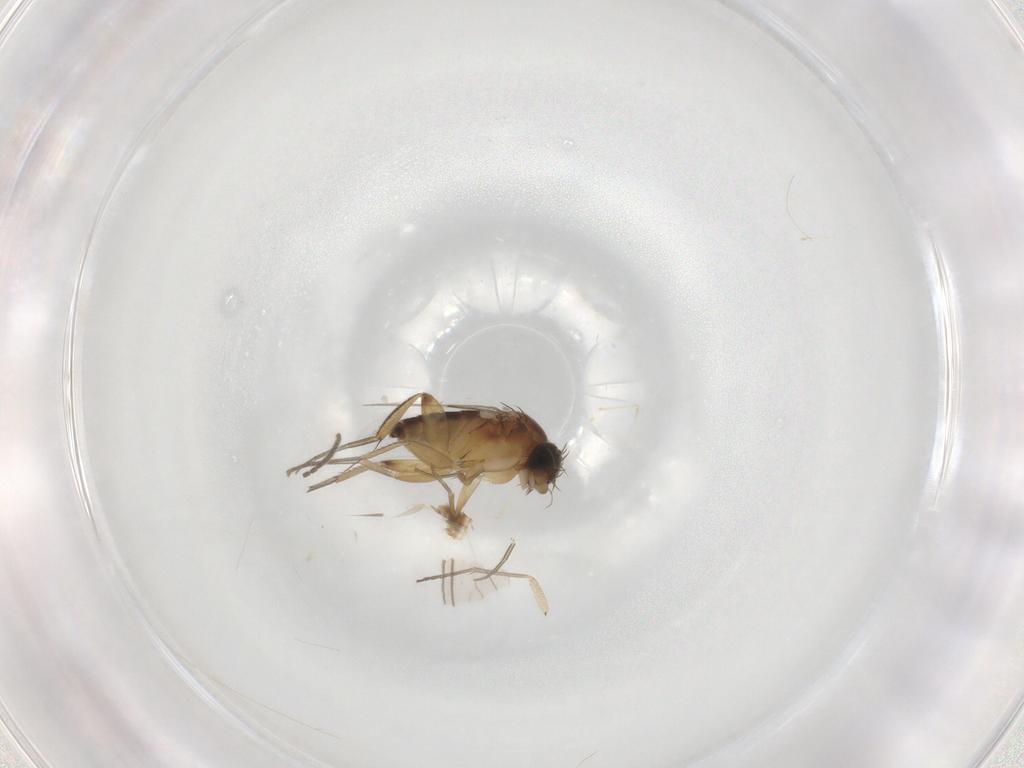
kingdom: Animalia
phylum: Arthropoda
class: Insecta
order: Diptera
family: Phoridae
